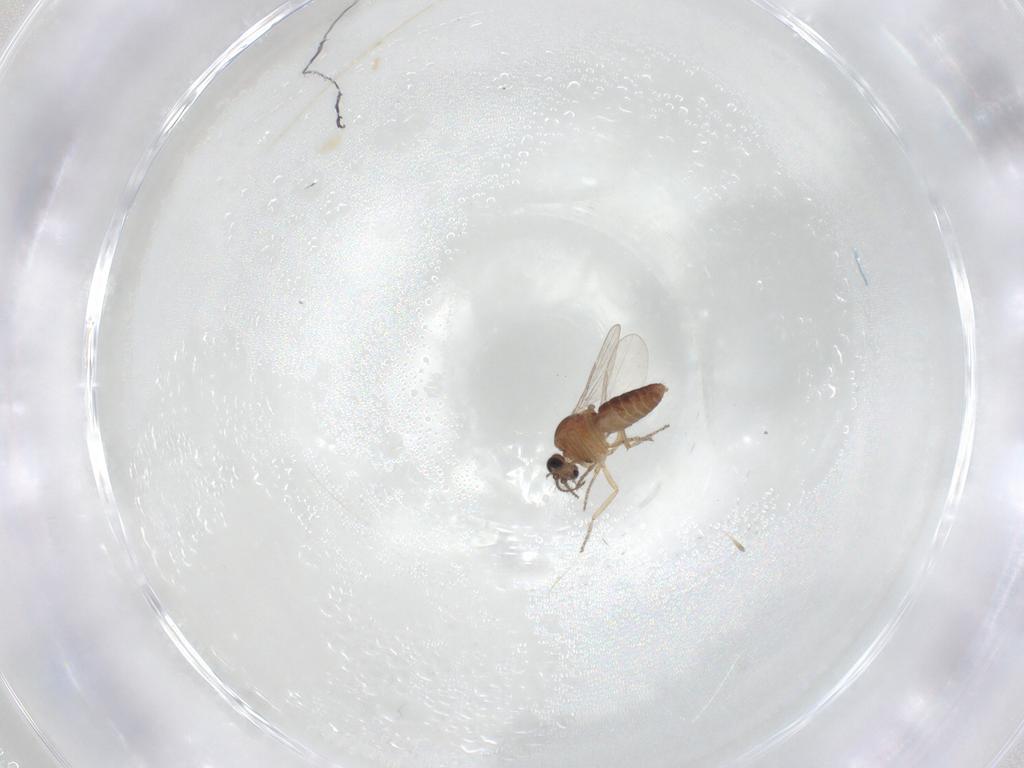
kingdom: Animalia
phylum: Arthropoda
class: Insecta
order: Diptera
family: Ceratopogonidae
